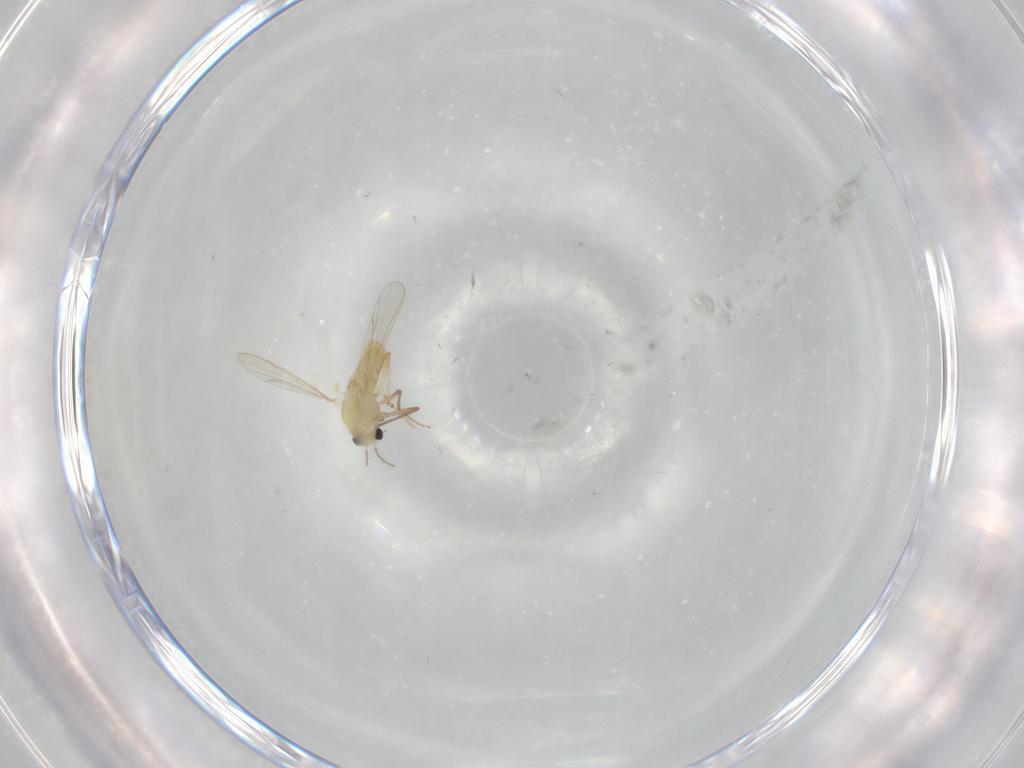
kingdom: Animalia
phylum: Arthropoda
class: Insecta
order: Diptera
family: Chironomidae
